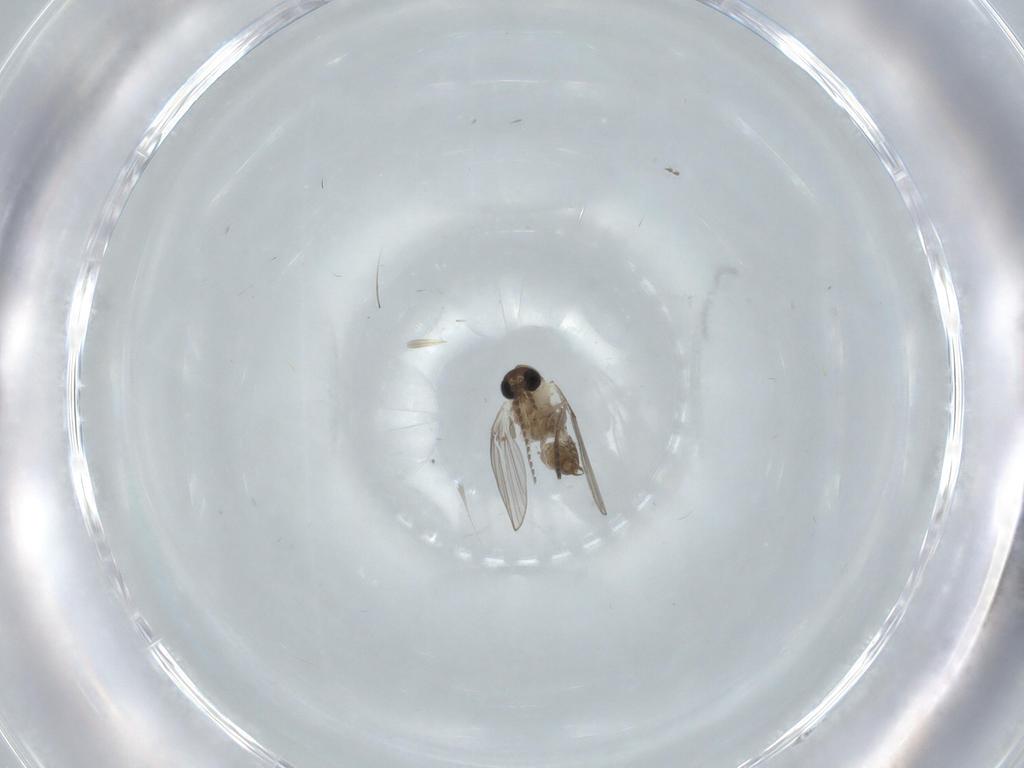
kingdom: Animalia
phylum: Arthropoda
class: Insecta
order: Diptera
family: Psychodidae
